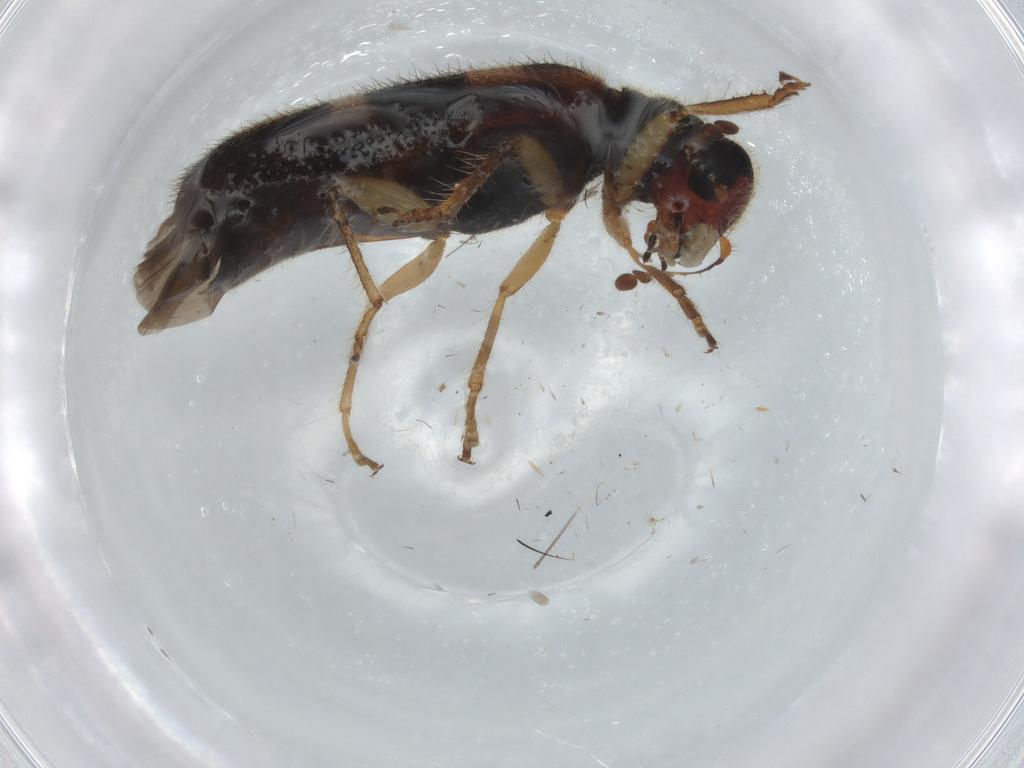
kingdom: Animalia
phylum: Arthropoda
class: Insecta
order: Coleoptera
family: Cleridae
